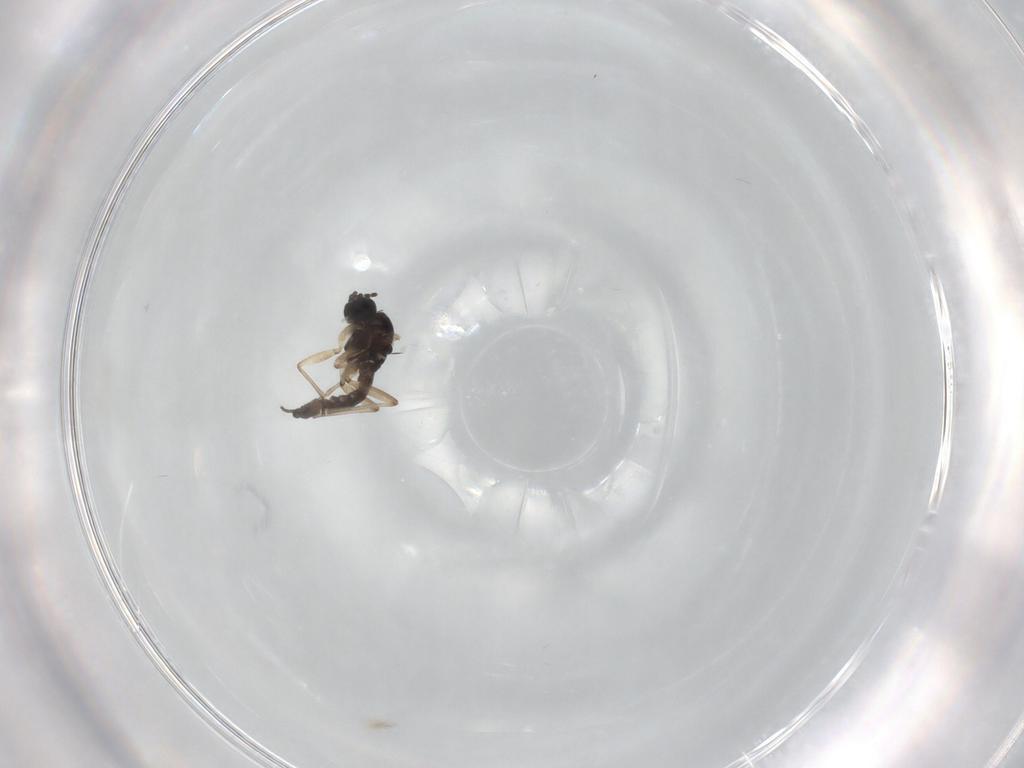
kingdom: Animalia
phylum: Arthropoda
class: Insecta
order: Diptera
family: Sciaridae
